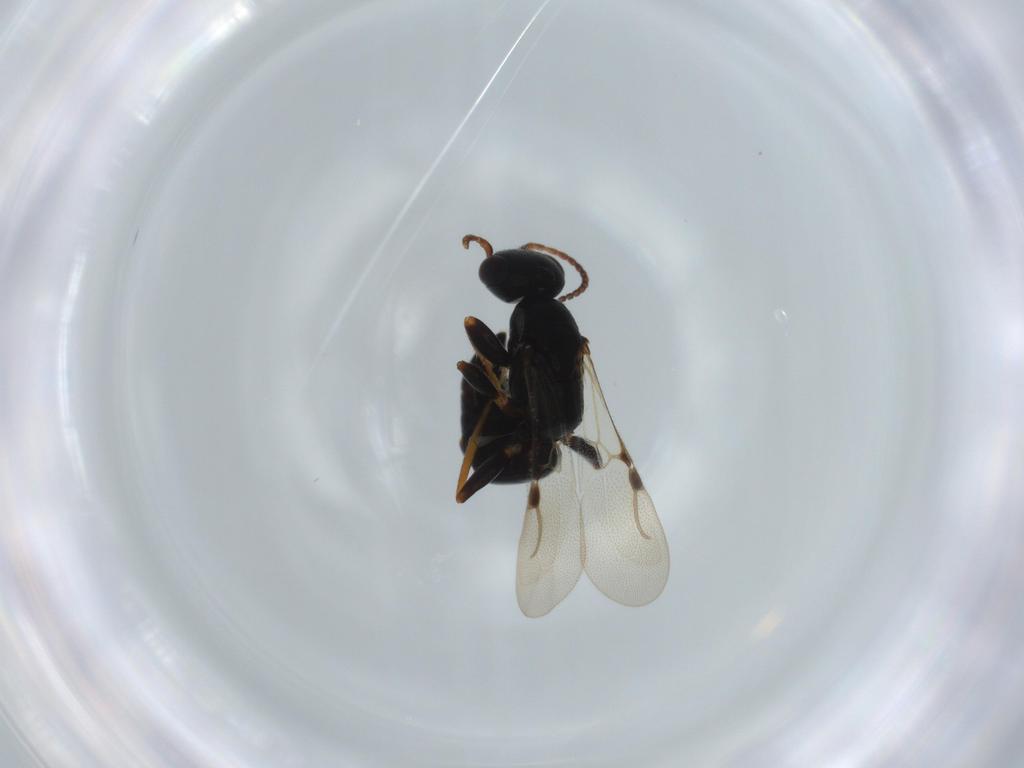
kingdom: Animalia
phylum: Arthropoda
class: Insecta
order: Hymenoptera
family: Bethylidae
